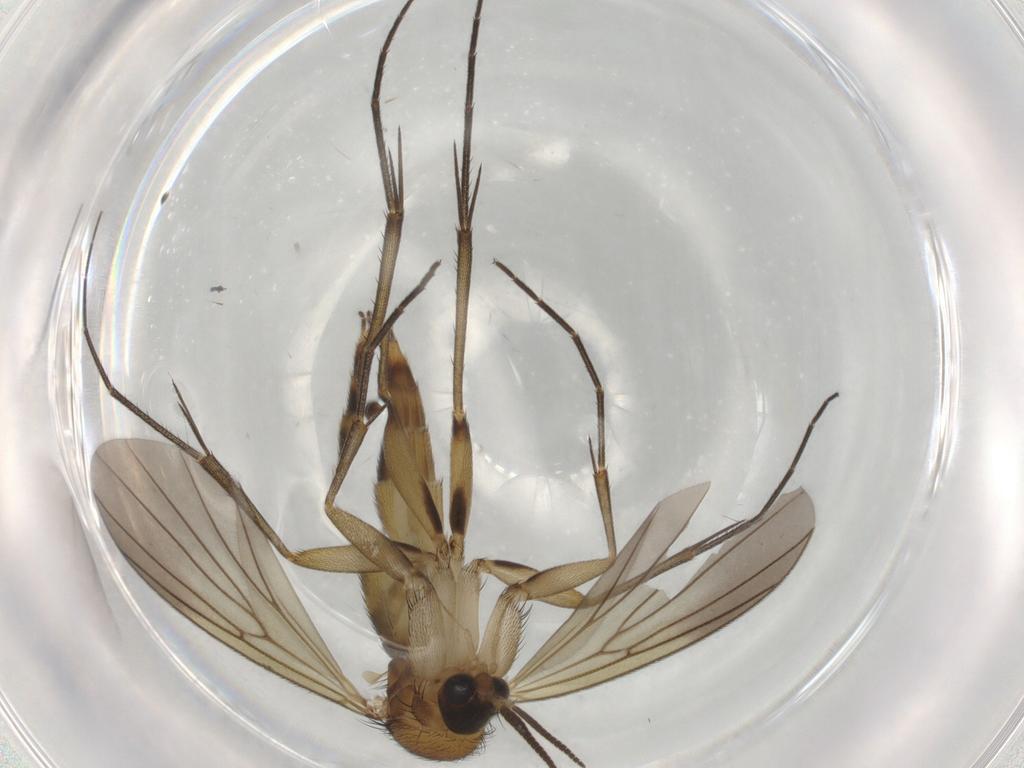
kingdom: Animalia
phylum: Arthropoda
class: Insecta
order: Diptera
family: Mycetophilidae
